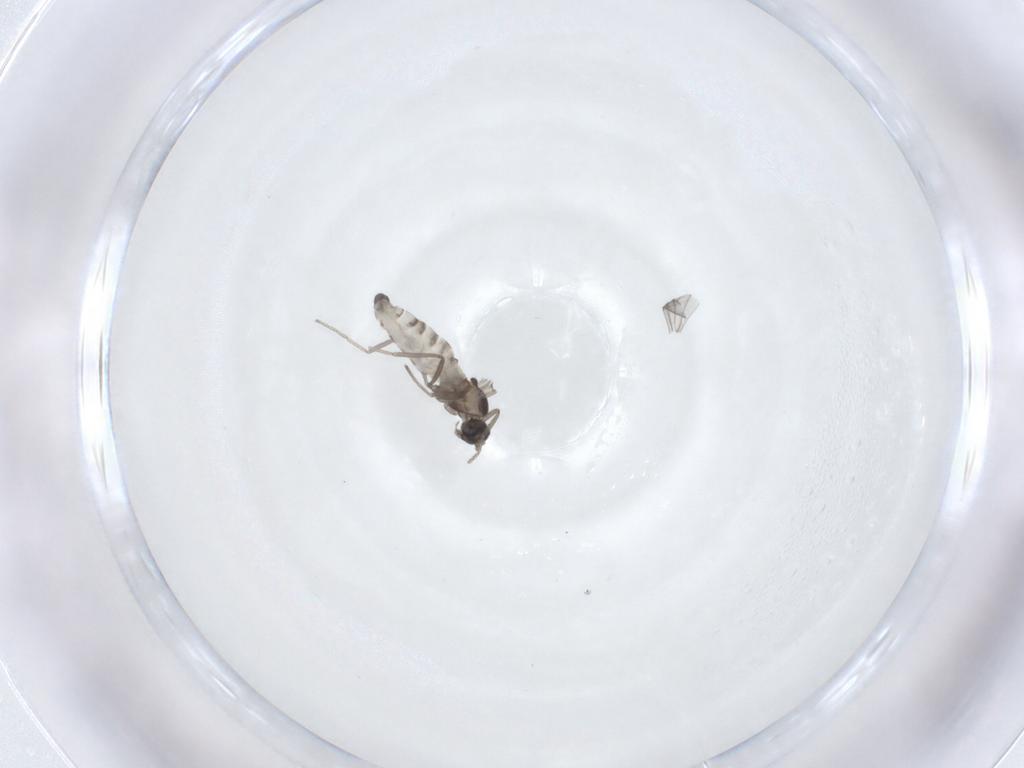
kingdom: Animalia
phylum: Arthropoda
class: Insecta
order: Diptera
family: Cecidomyiidae
